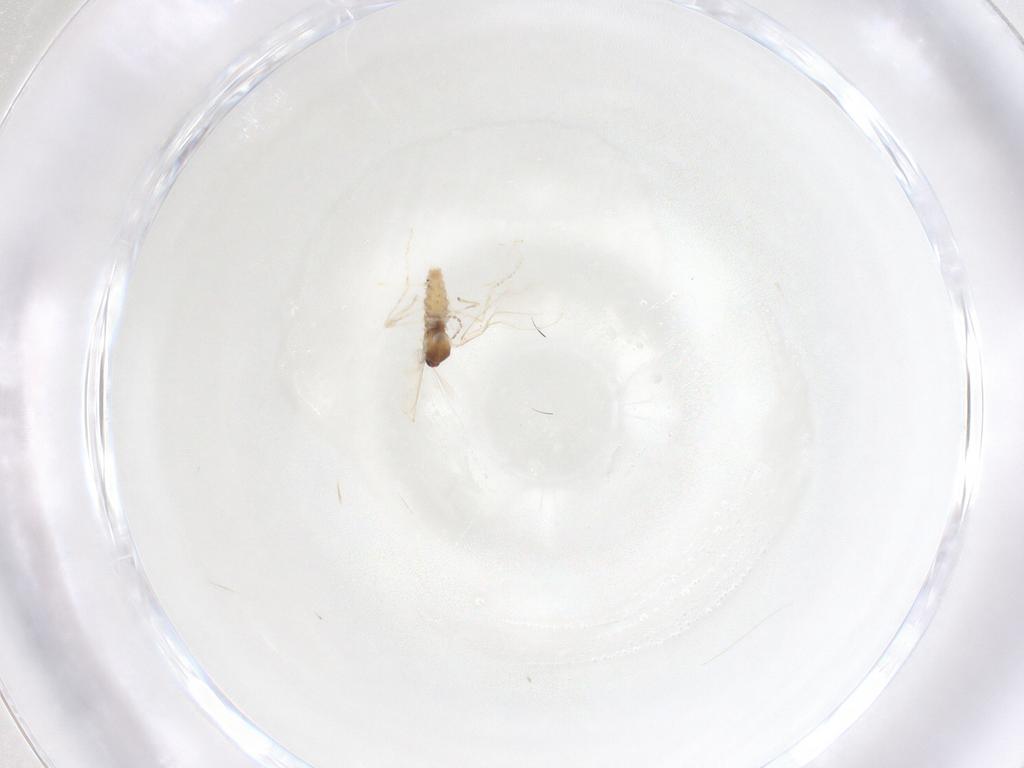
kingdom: Animalia
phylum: Arthropoda
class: Insecta
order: Diptera
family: Cecidomyiidae
